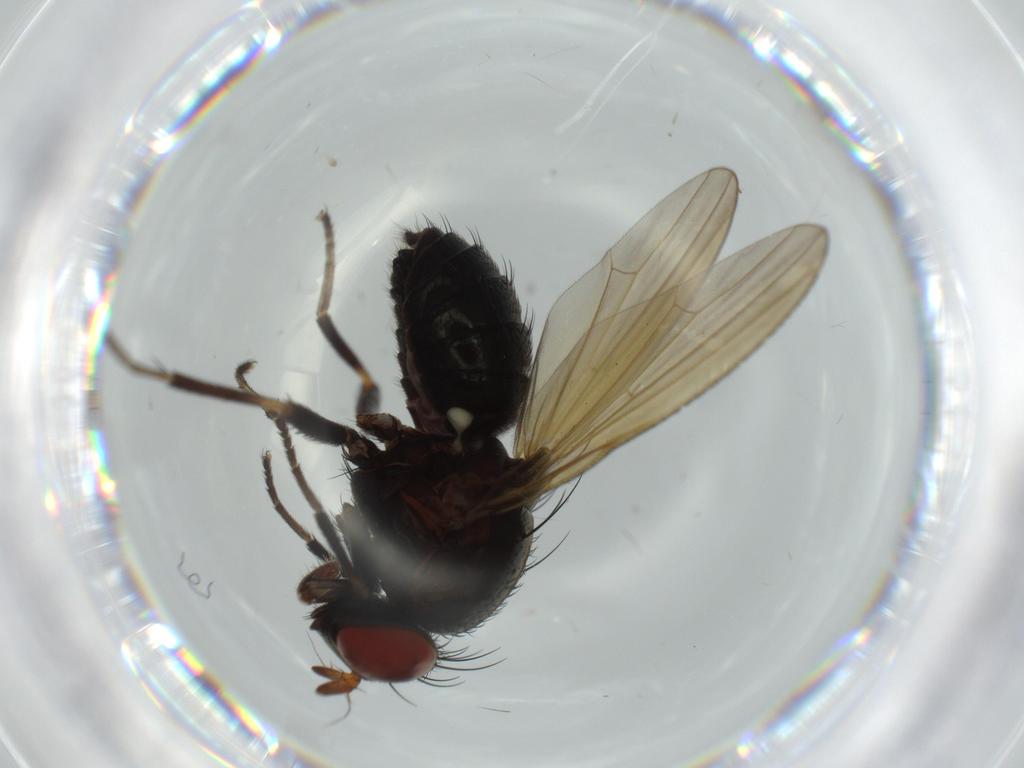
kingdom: Animalia
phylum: Arthropoda
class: Insecta
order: Diptera
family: Lauxaniidae
